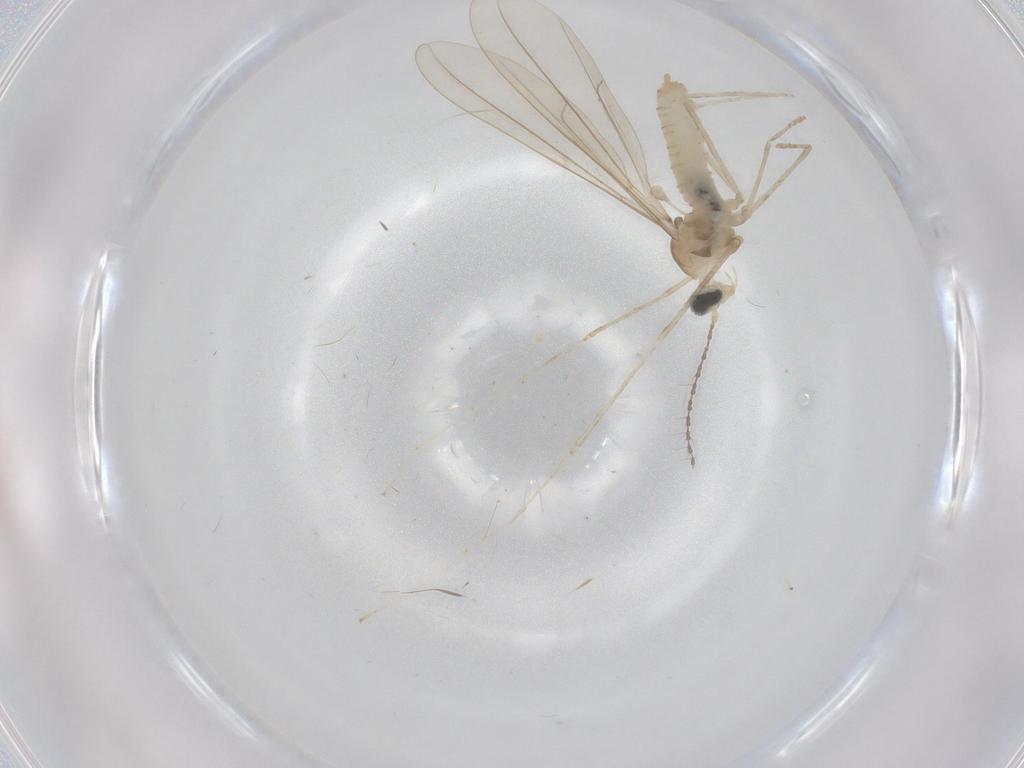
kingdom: Animalia
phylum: Arthropoda
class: Insecta
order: Diptera
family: Cecidomyiidae
